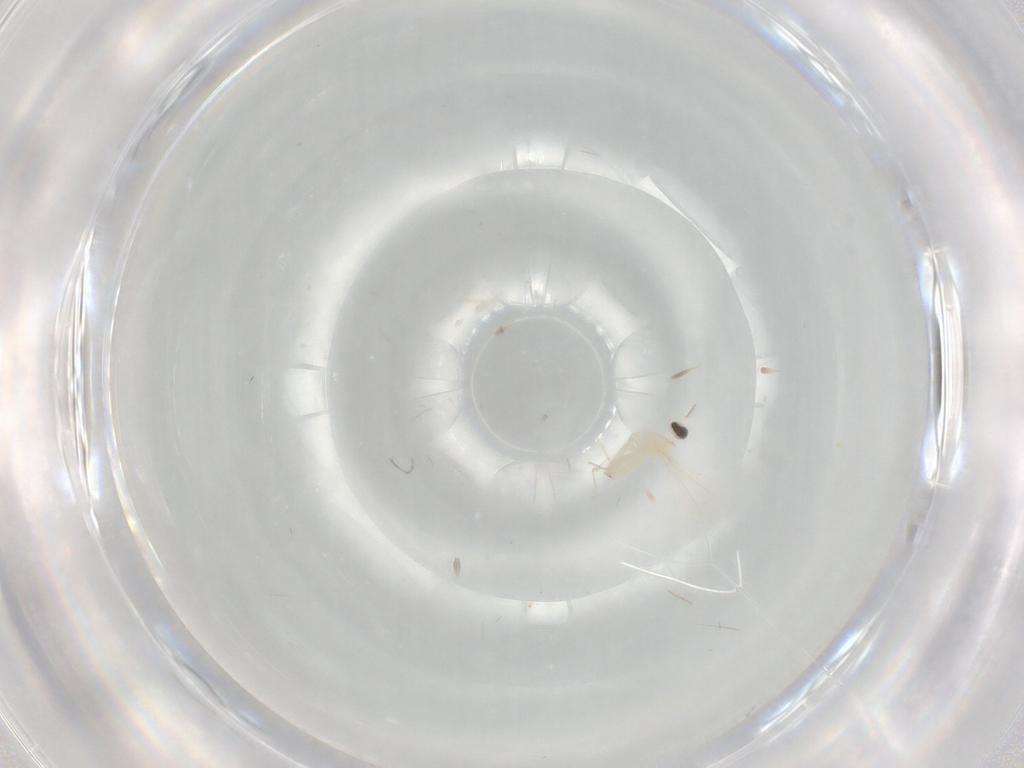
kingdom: Animalia
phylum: Arthropoda
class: Insecta
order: Diptera
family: Cecidomyiidae
